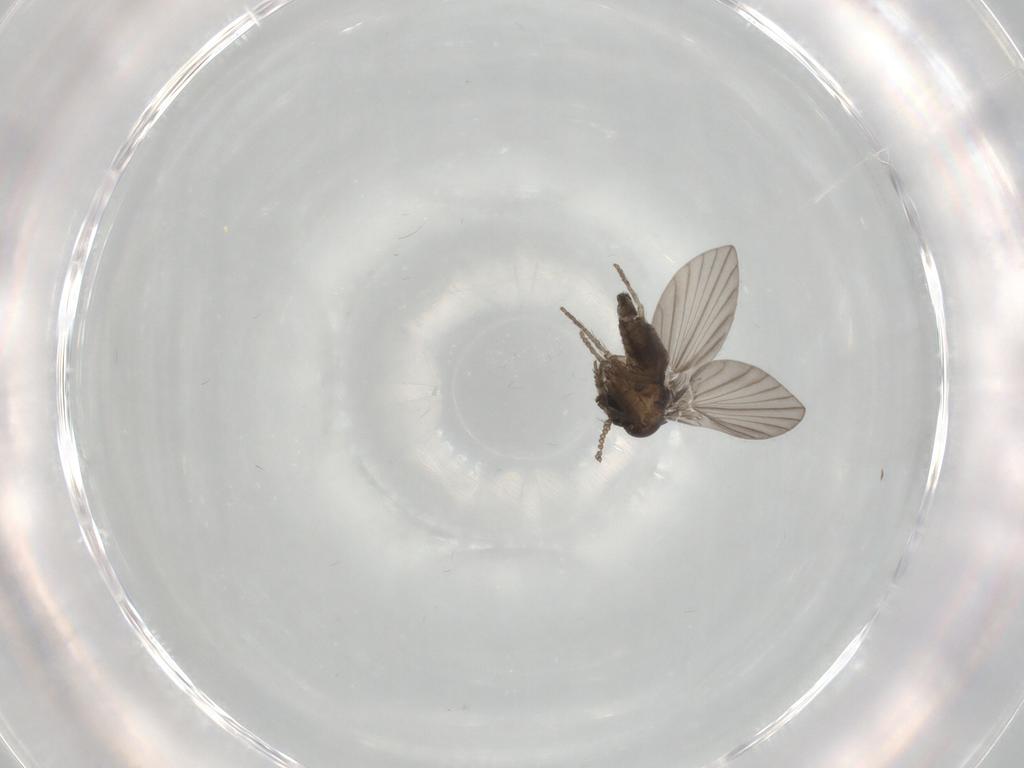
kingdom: Animalia
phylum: Arthropoda
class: Insecta
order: Diptera
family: Psychodidae
